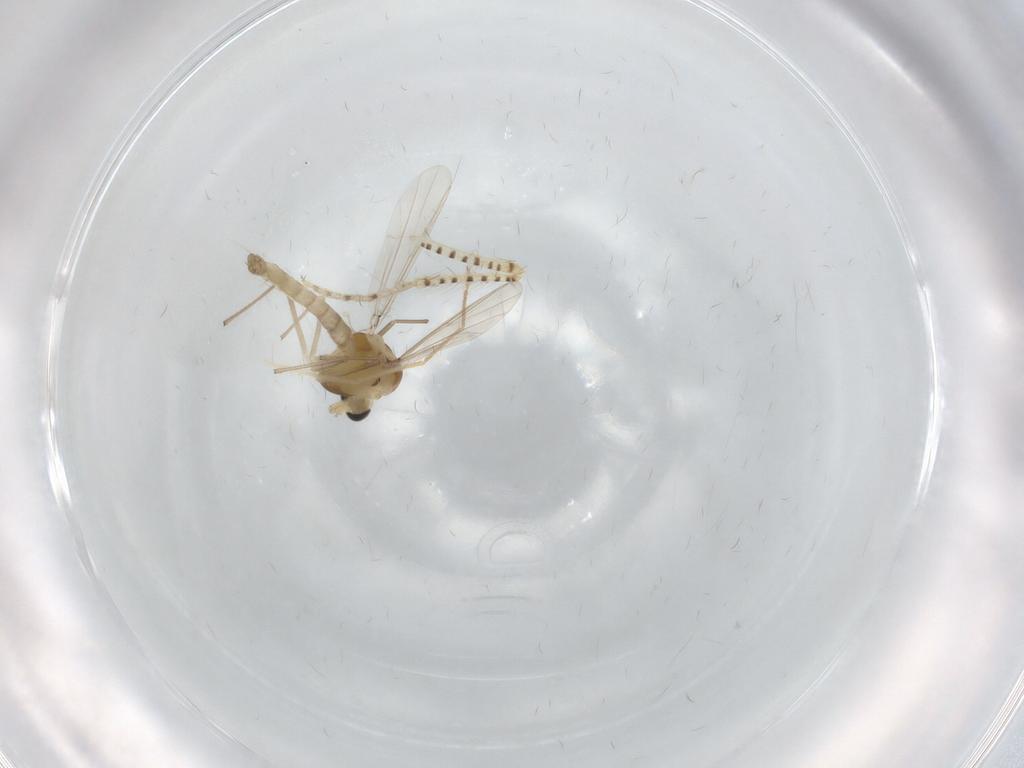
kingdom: Animalia
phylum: Arthropoda
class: Insecta
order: Diptera
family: Chaoboridae
